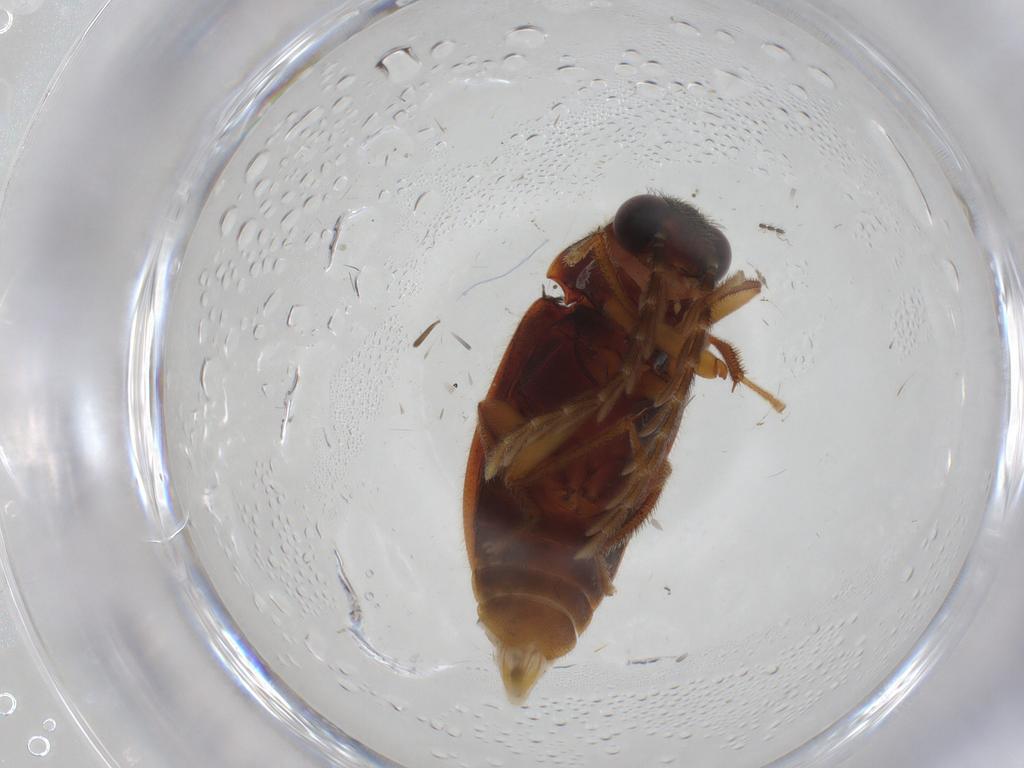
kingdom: Animalia
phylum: Arthropoda
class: Insecta
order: Coleoptera
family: Ptilodactylidae
